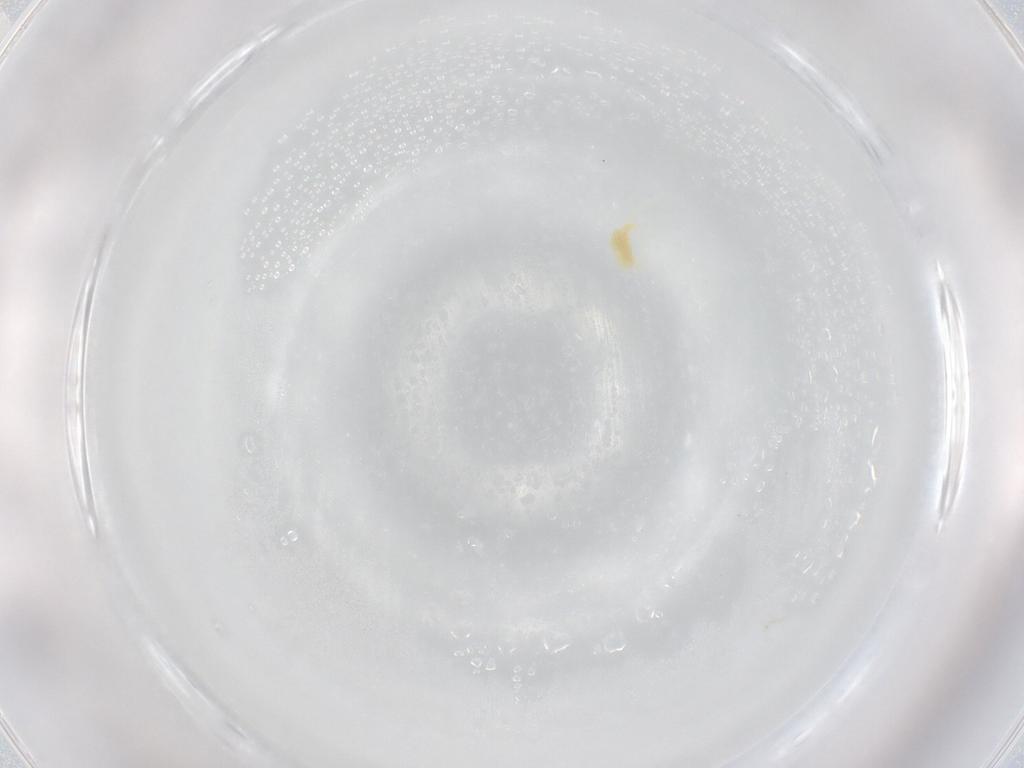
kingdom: Animalia
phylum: Arthropoda
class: Arachnida
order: Trombidiformes
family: Eupodidae
